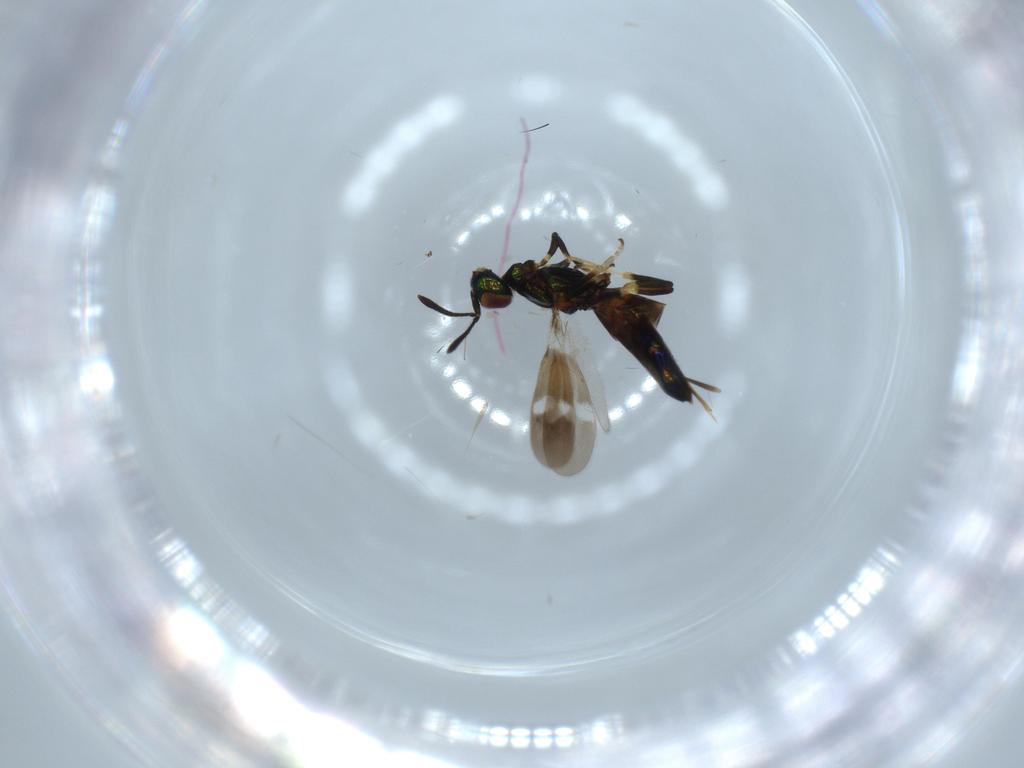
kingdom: Animalia
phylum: Arthropoda
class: Insecta
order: Hymenoptera
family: Eupelmidae
